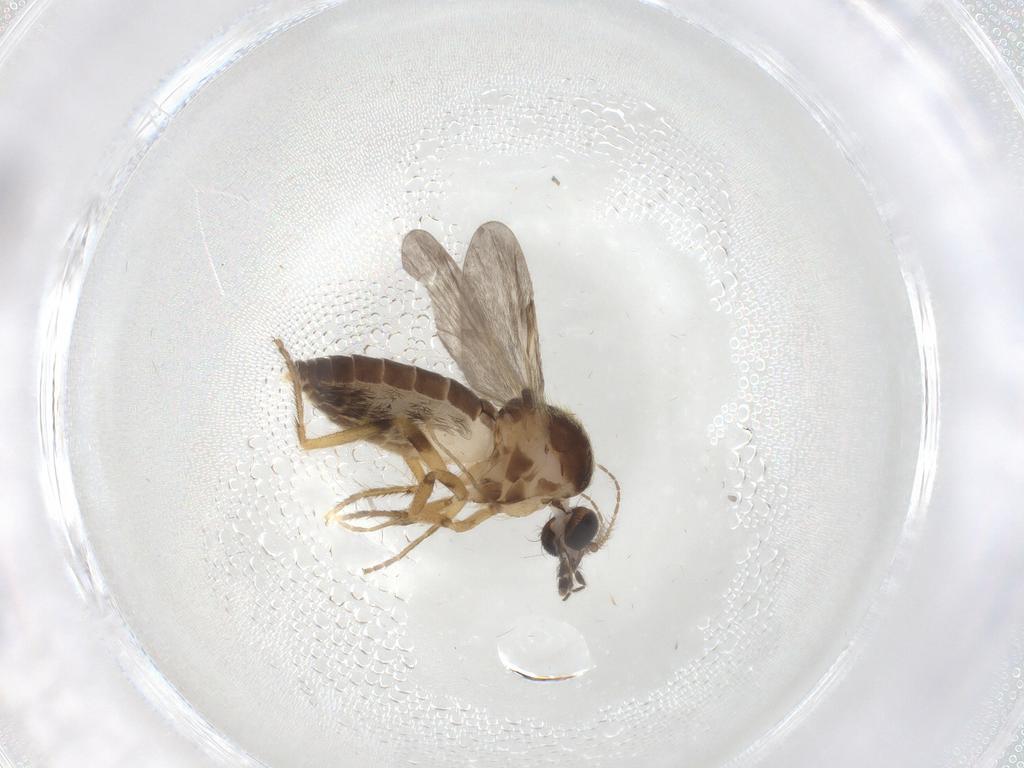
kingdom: Animalia
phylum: Arthropoda
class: Insecta
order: Diptera
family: Ceratopogonidae
